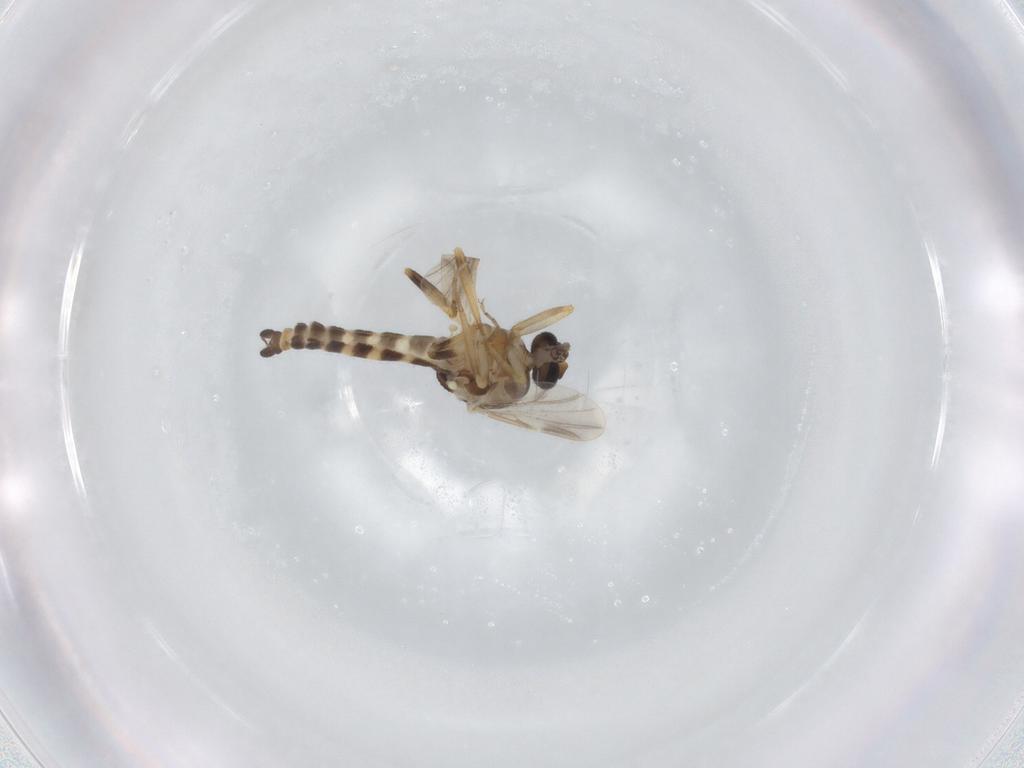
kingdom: Animalia
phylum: Arthropoda
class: Insecta
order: Diptera
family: Ceratopogonidae
